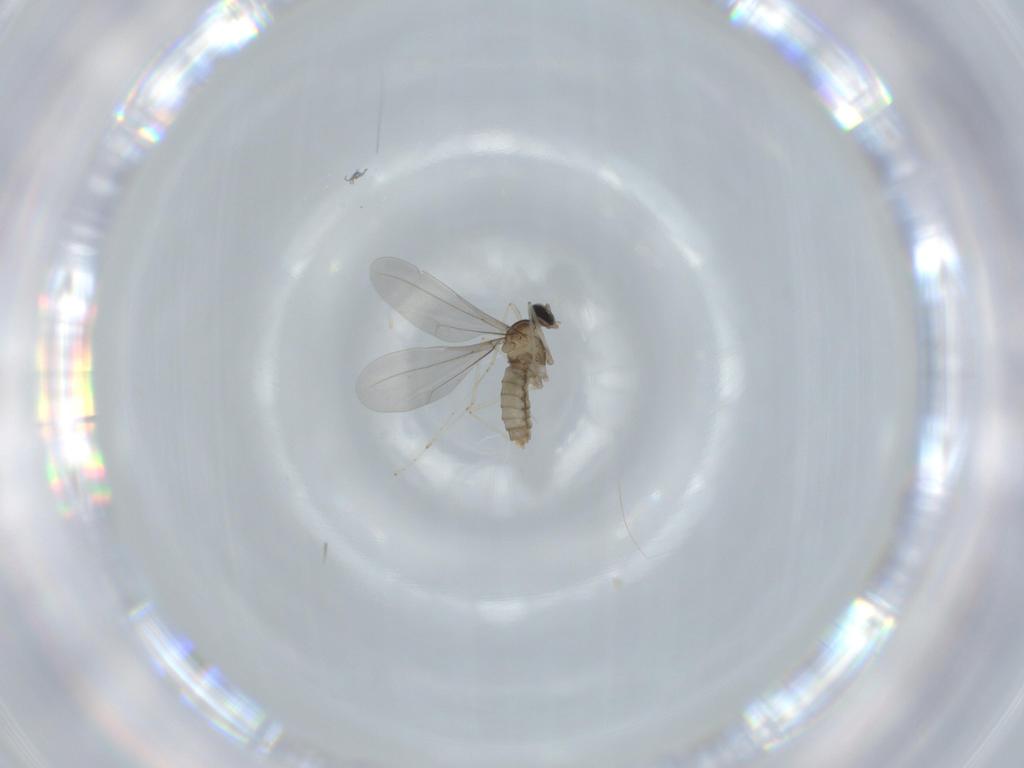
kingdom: Animalia
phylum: Arthropoda
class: Insecta
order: Diptera
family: Cecidomyiidae
